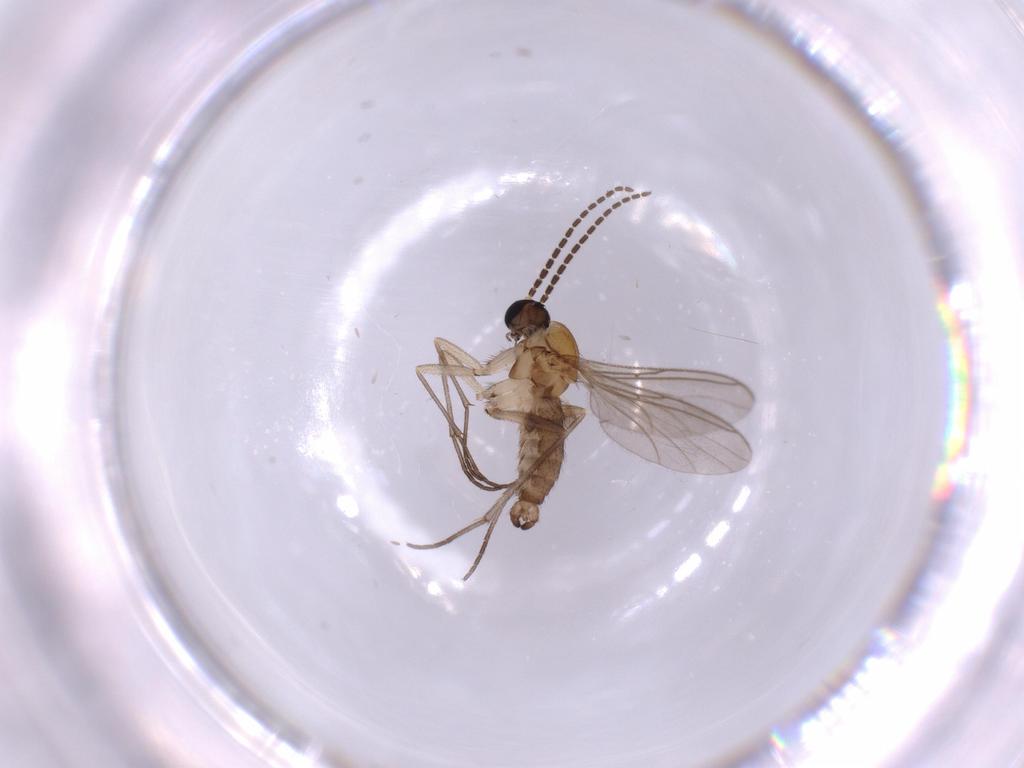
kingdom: Animalia
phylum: Arthropoda
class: Insecta
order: Diptera
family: Sciaridae
